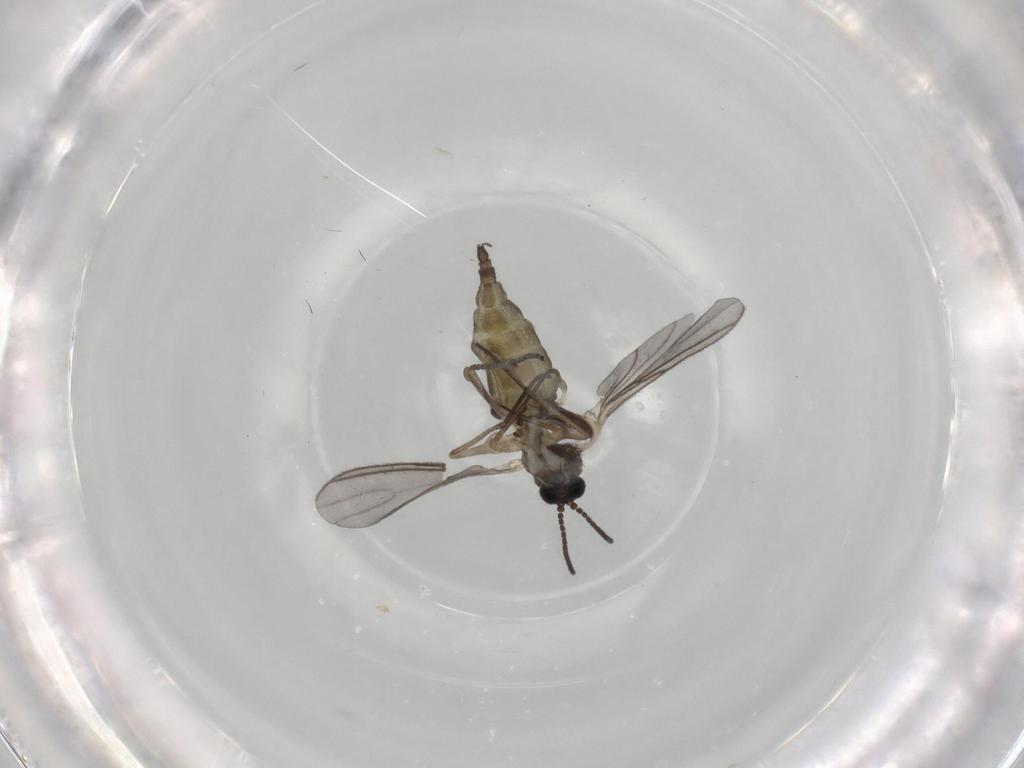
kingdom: Animalia
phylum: Arthropoda
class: Insecta
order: Diptera
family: Sciaridae
